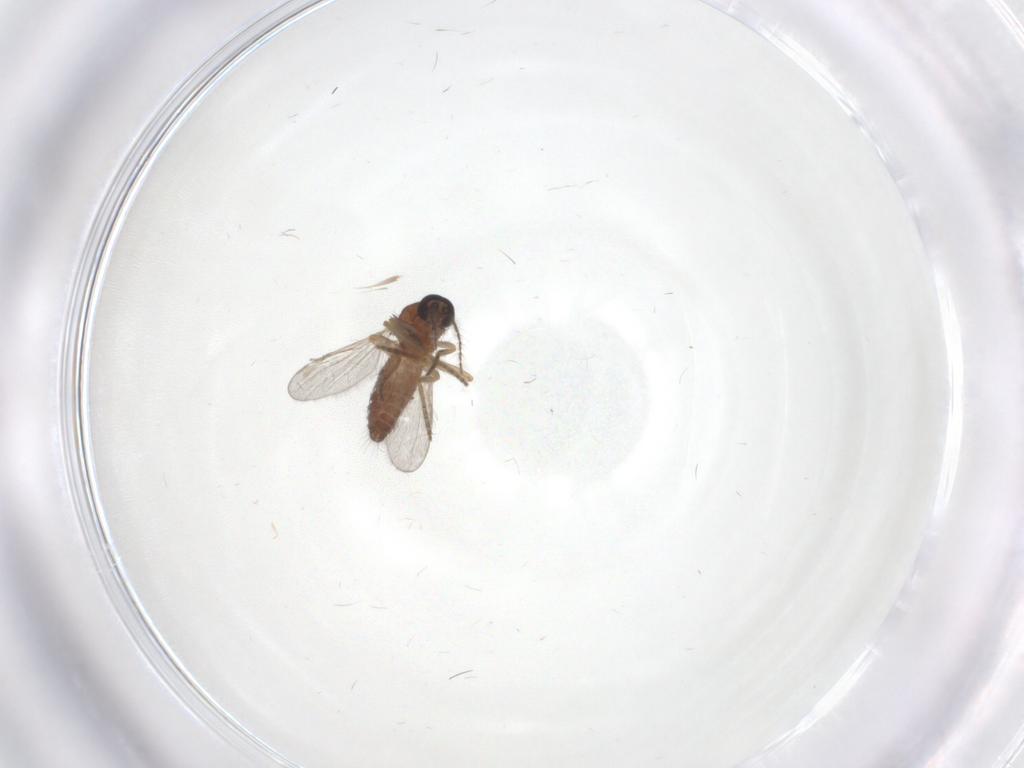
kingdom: Animalia
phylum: Arthropoda
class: Insecta
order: Diptera
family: Ceratopogonidae
